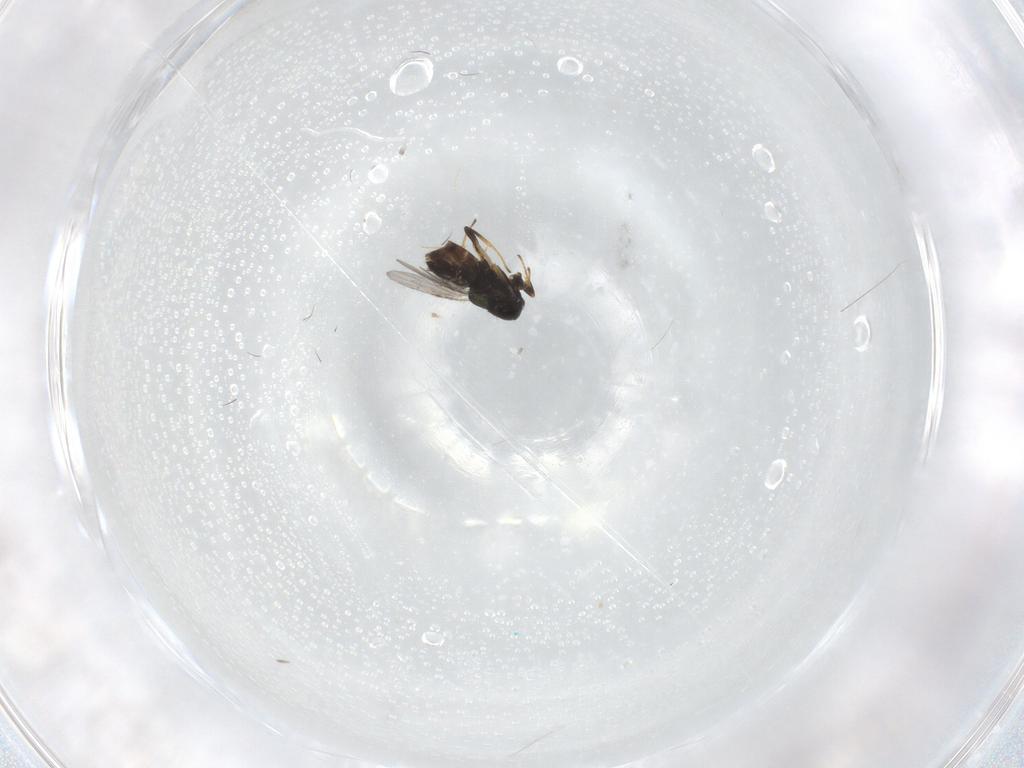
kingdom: Animalia
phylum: Arthropoda
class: Insecta
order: Hymenoptera
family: Encyrtidae
